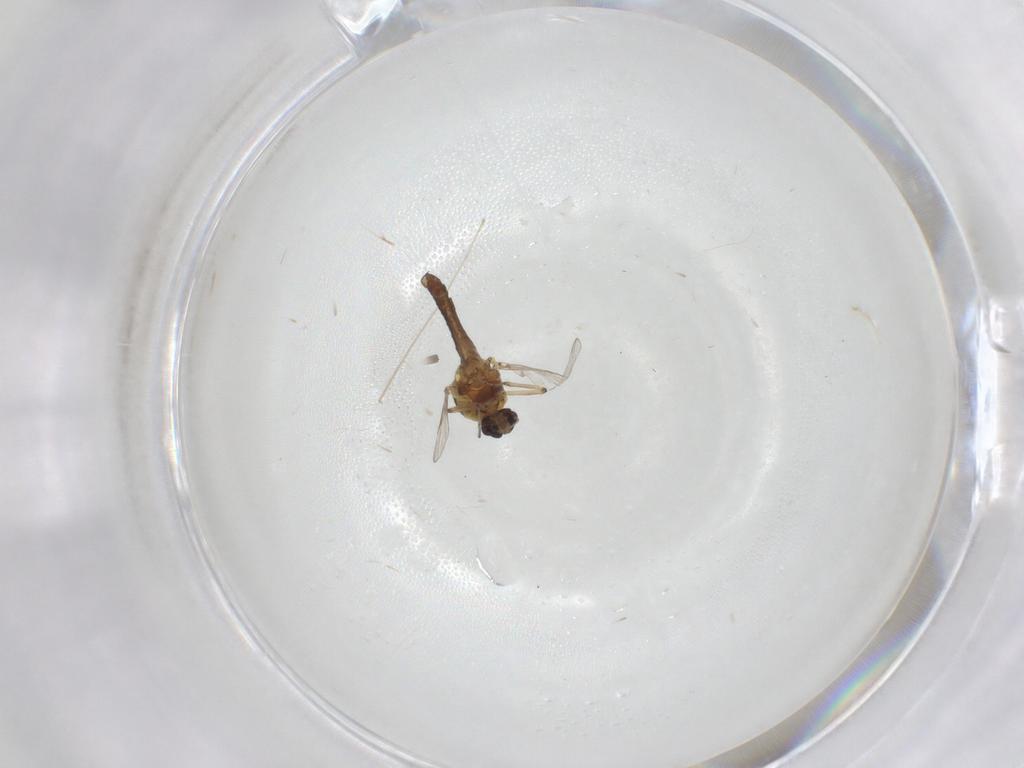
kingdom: Animalia
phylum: Arthropoda
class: Insecta
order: Diptera
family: Ceratopogonidae
